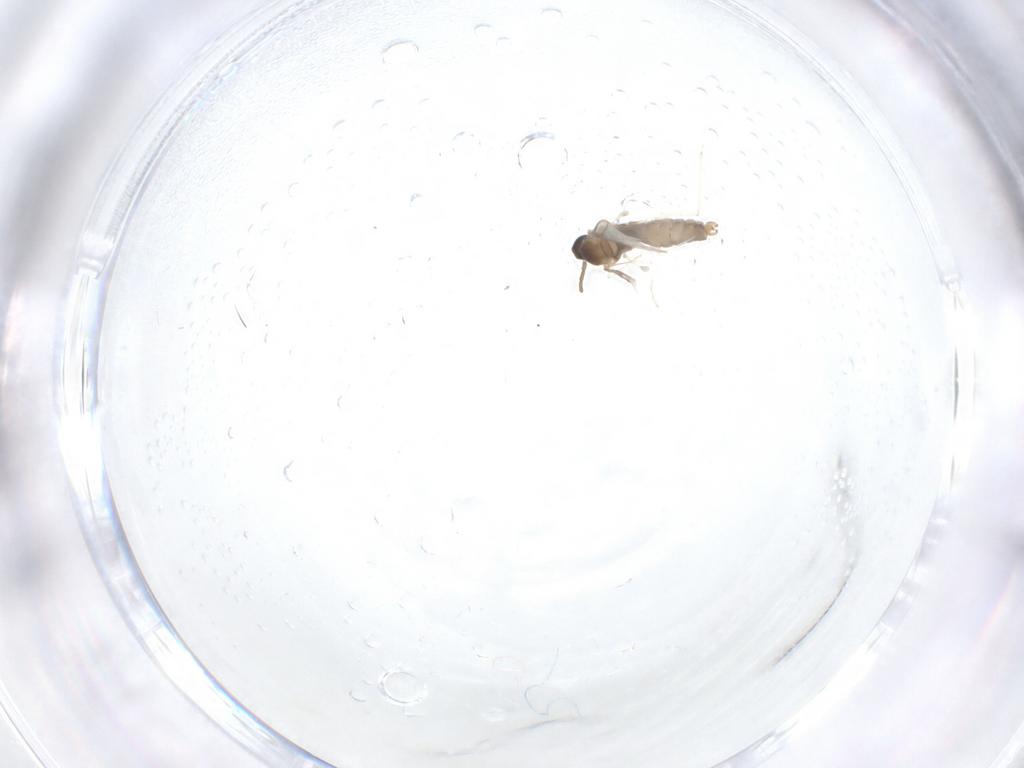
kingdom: Animalia
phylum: Arthropoda
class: Insecta
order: Diptera
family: Cecidomyiidae
